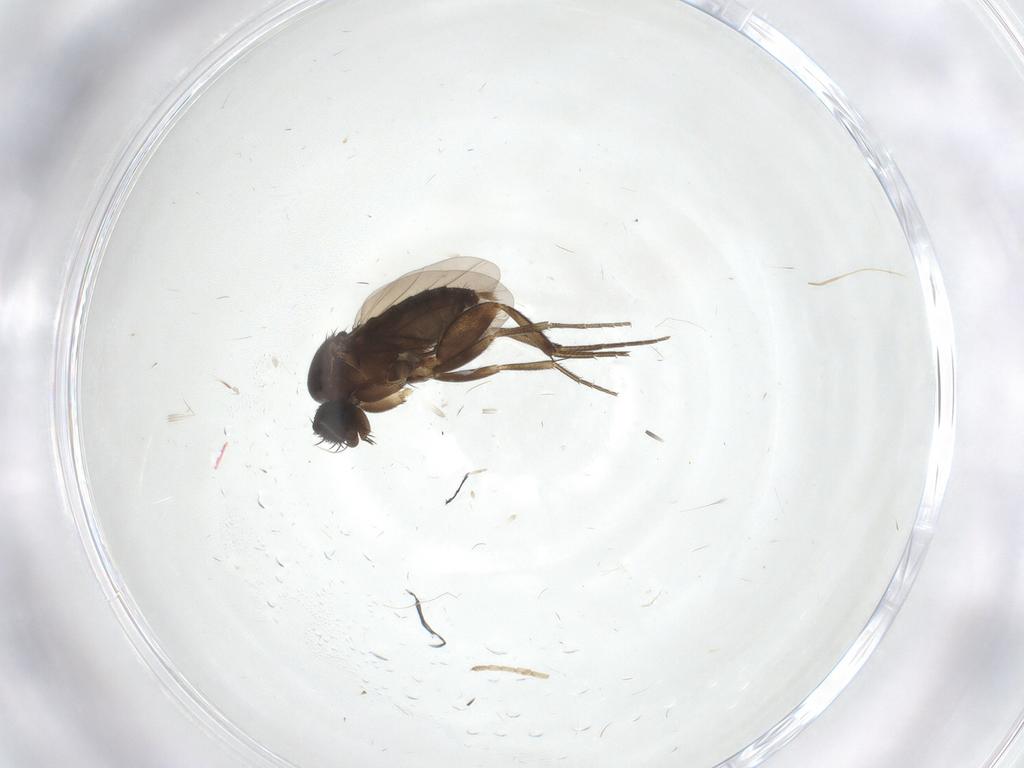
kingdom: Animalia
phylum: Arthropoda
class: Insecta
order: Diptera
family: Phoridae
